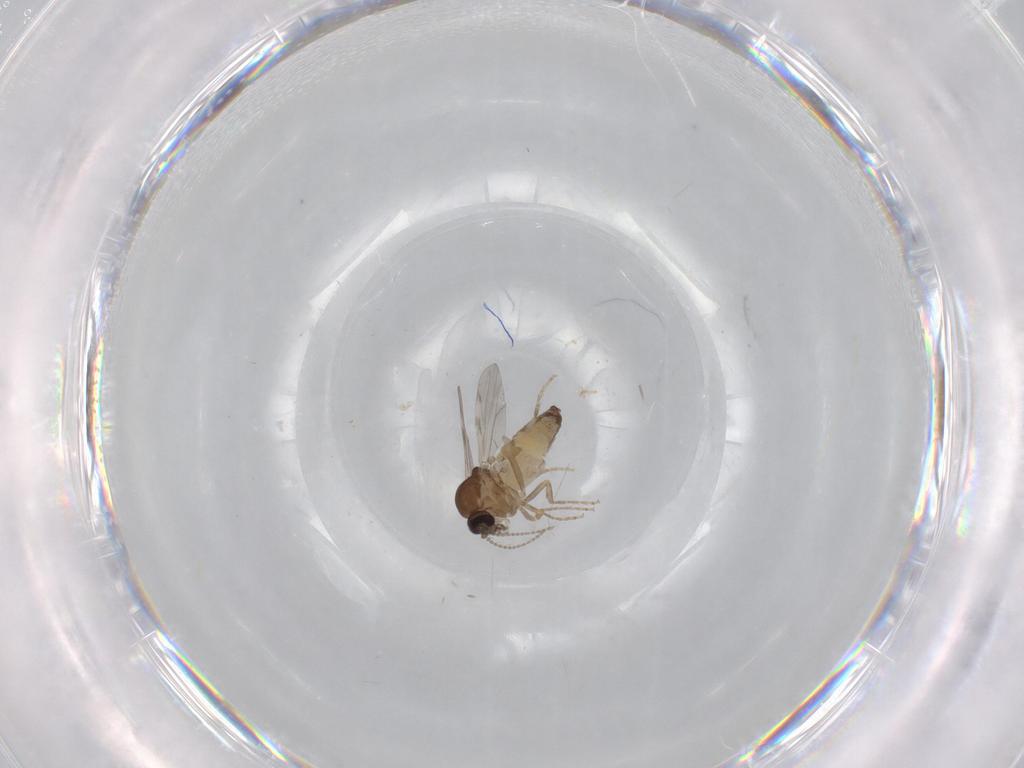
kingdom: Animalia
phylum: Arthropoda
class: Insecta
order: Diptera
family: Ceratopogonidae
